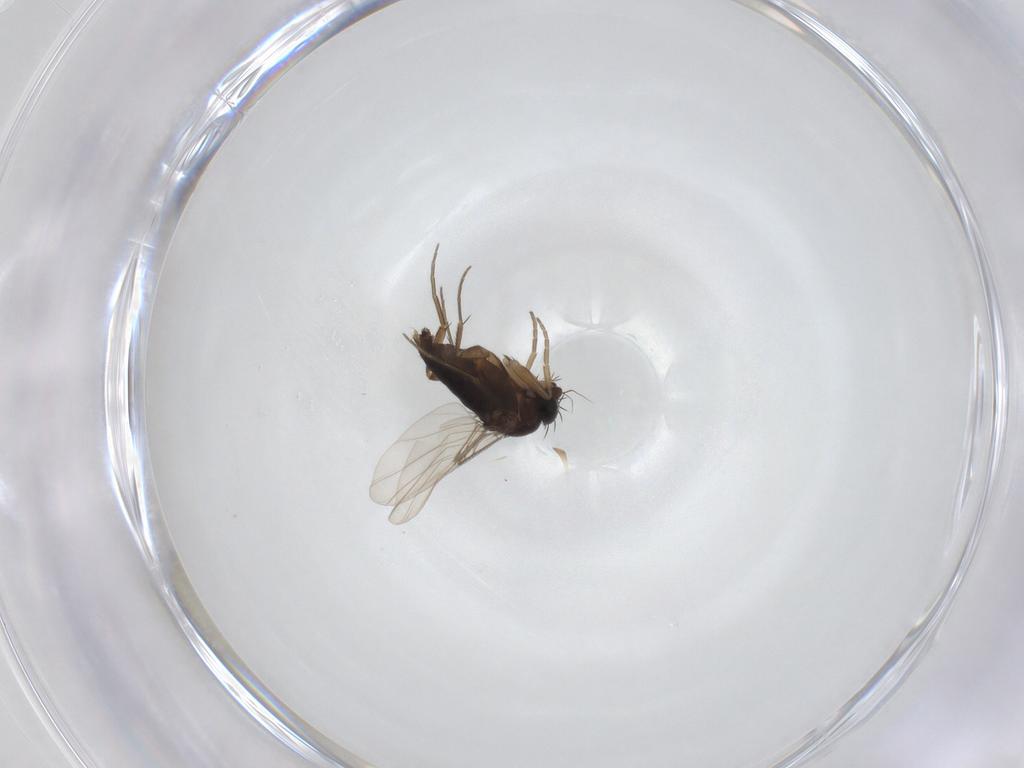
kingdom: Animalia
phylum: Arthropoda
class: Insecta
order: Diptera
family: Phoridae
